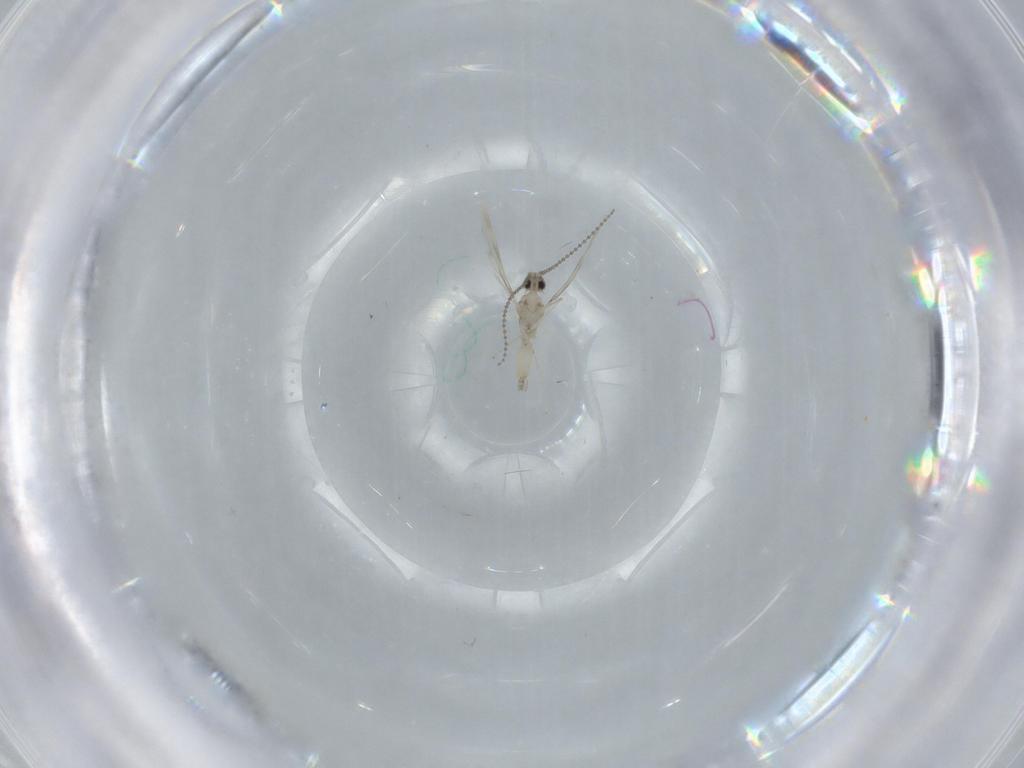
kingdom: Animalia
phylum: Arthropoda
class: Insecta
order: Diptera
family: Cecidomyiidae
